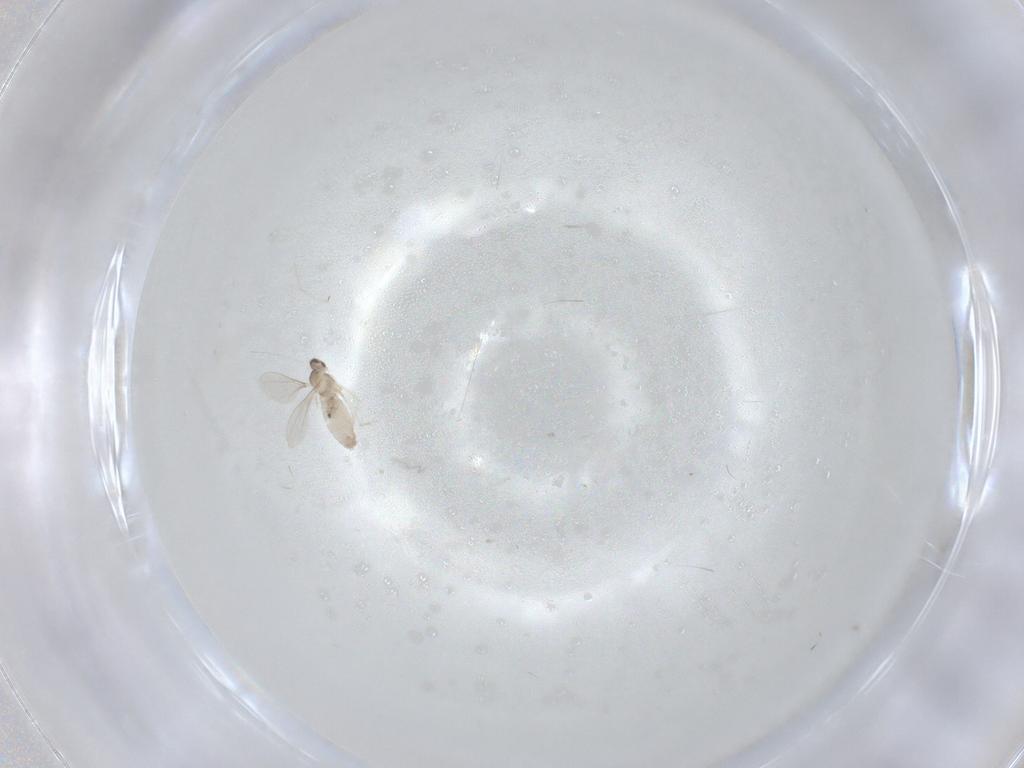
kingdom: Animalia
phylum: Arthropoda
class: Insecta
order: Diptera
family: Cecidomyiidae
